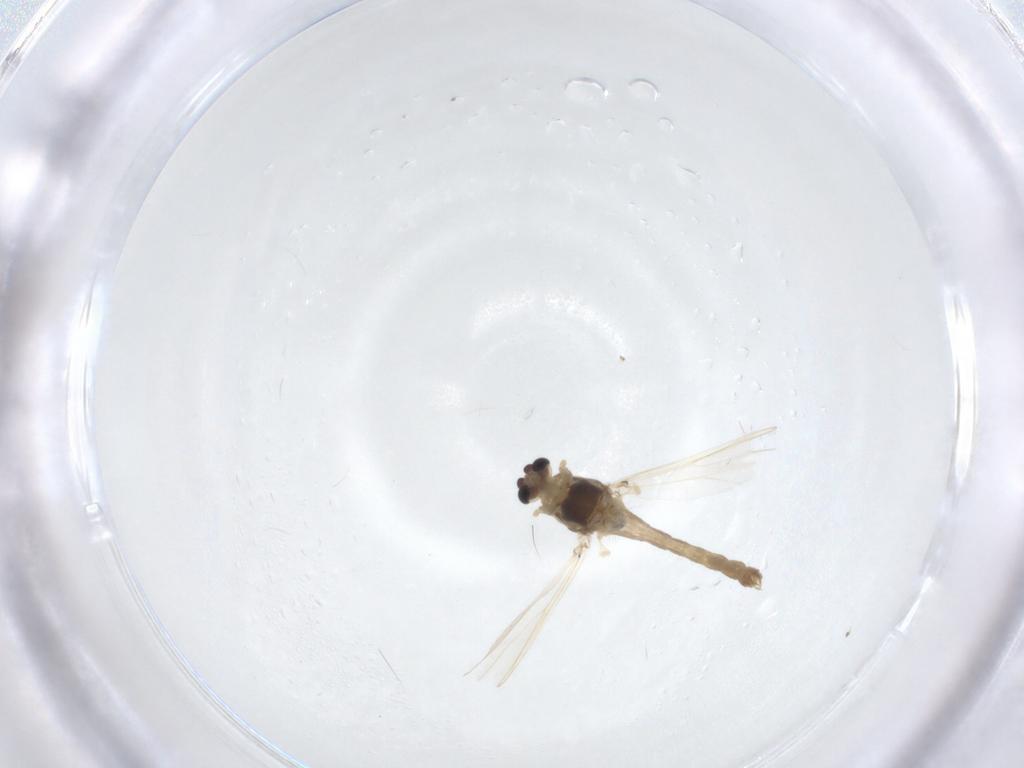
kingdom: Animalia
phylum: Arthropoda
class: Insecta
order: Diptera
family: Chironomidae
